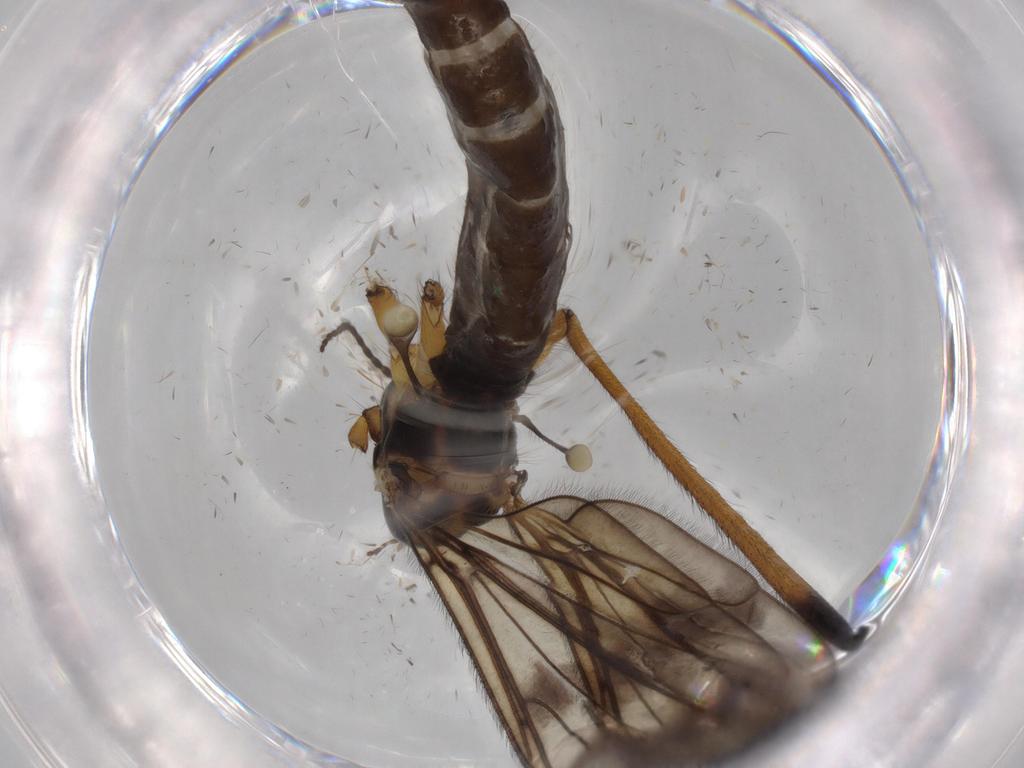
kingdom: Animalia
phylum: Arthropoda
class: Insecta
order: Diptera
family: Limoniidae
